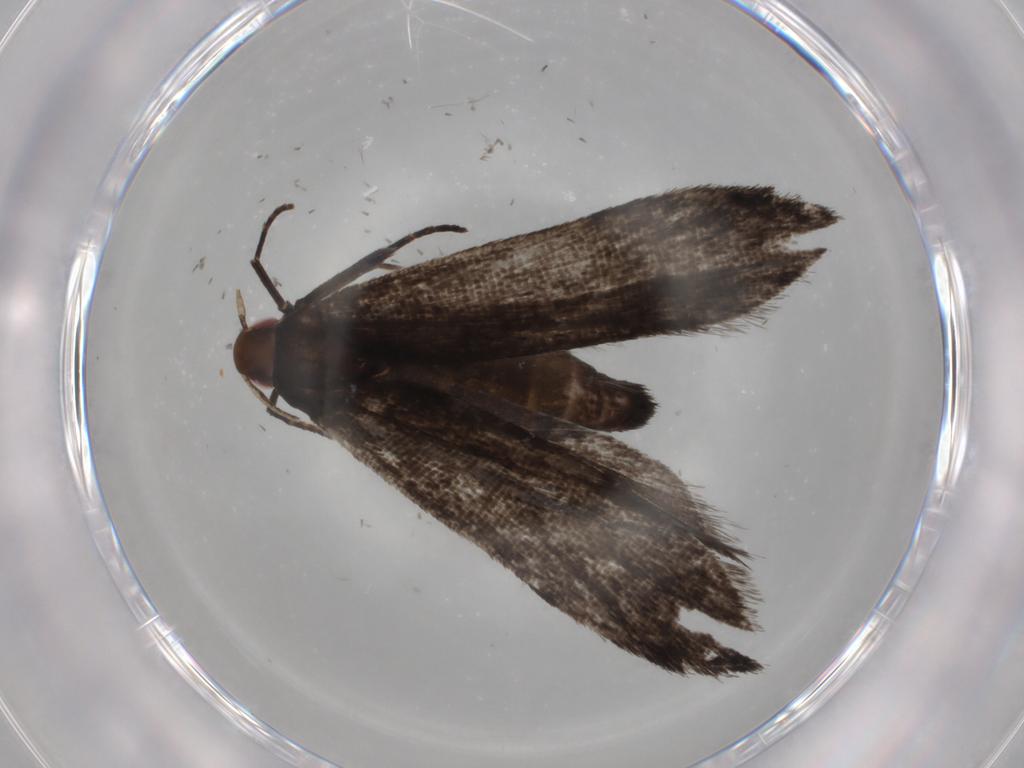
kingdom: Animalia
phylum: Arthropoda
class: Insecta
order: Lepidoptera
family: Gelechiidae
